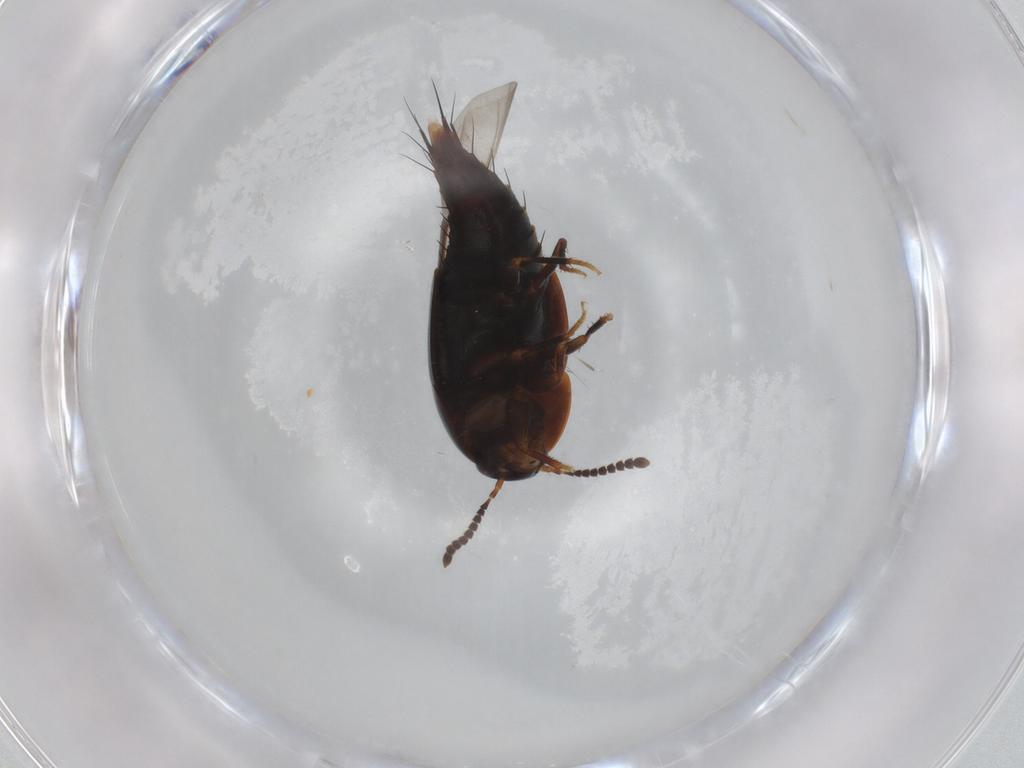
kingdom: Animalia
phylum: Arthropoda
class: Insecta
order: Coleoptera
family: Staphylinidae
